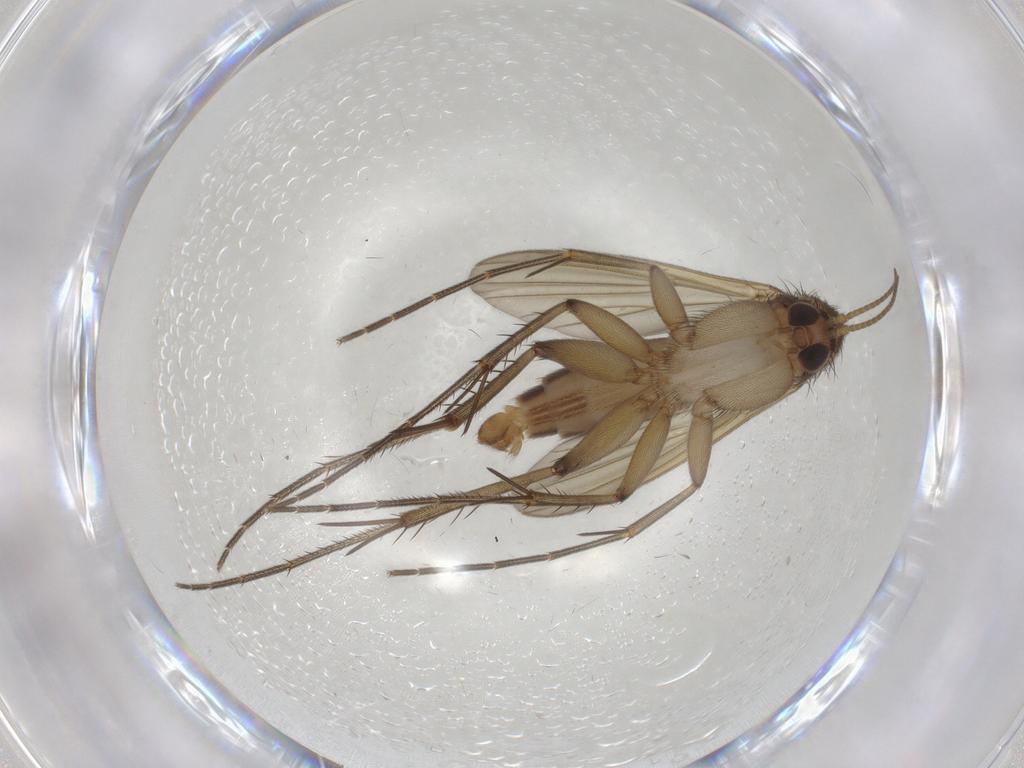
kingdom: Animalia
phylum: Arthropoda
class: Insecta
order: Diptera
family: Mycetophilidae
